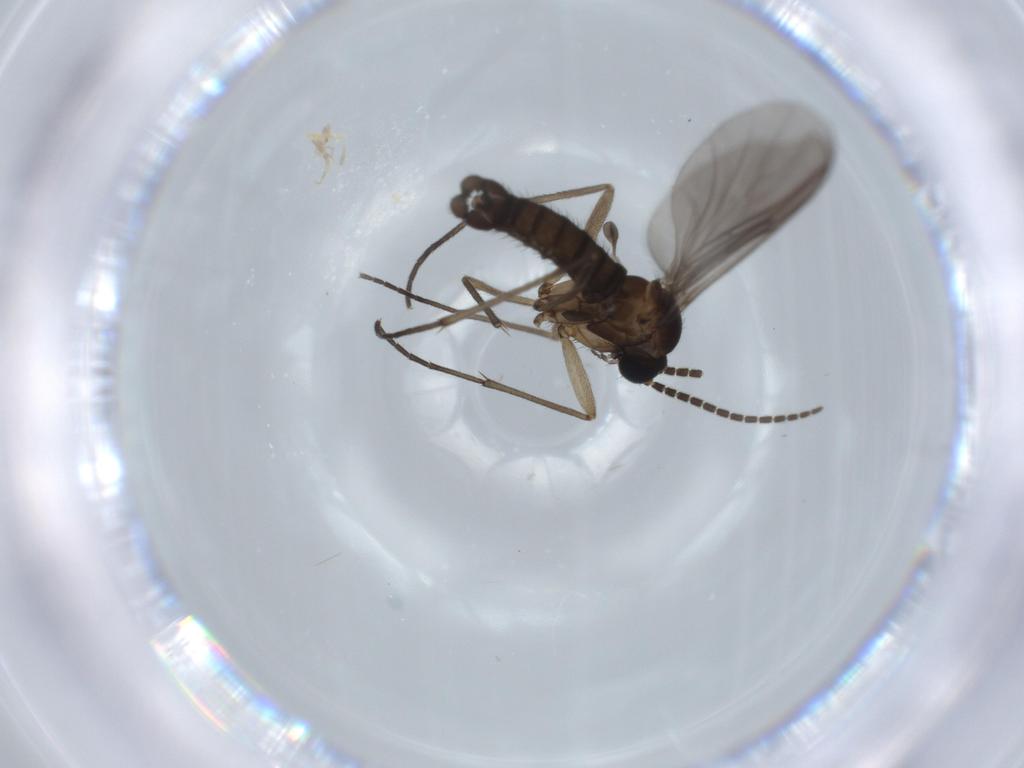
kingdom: Animalia
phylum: Arthropoda
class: Insecta
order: Diptera
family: Sciaridae
